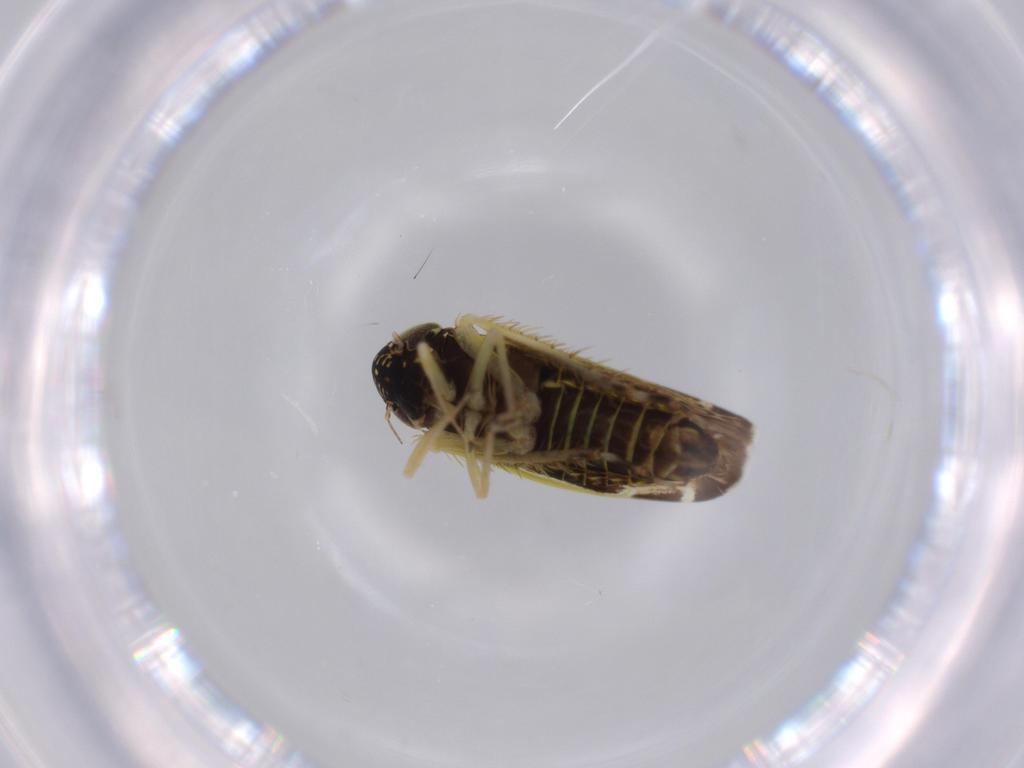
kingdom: Animalia
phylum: Arthropoda
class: Insecta
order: Hemiptera
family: Cicadellidae
